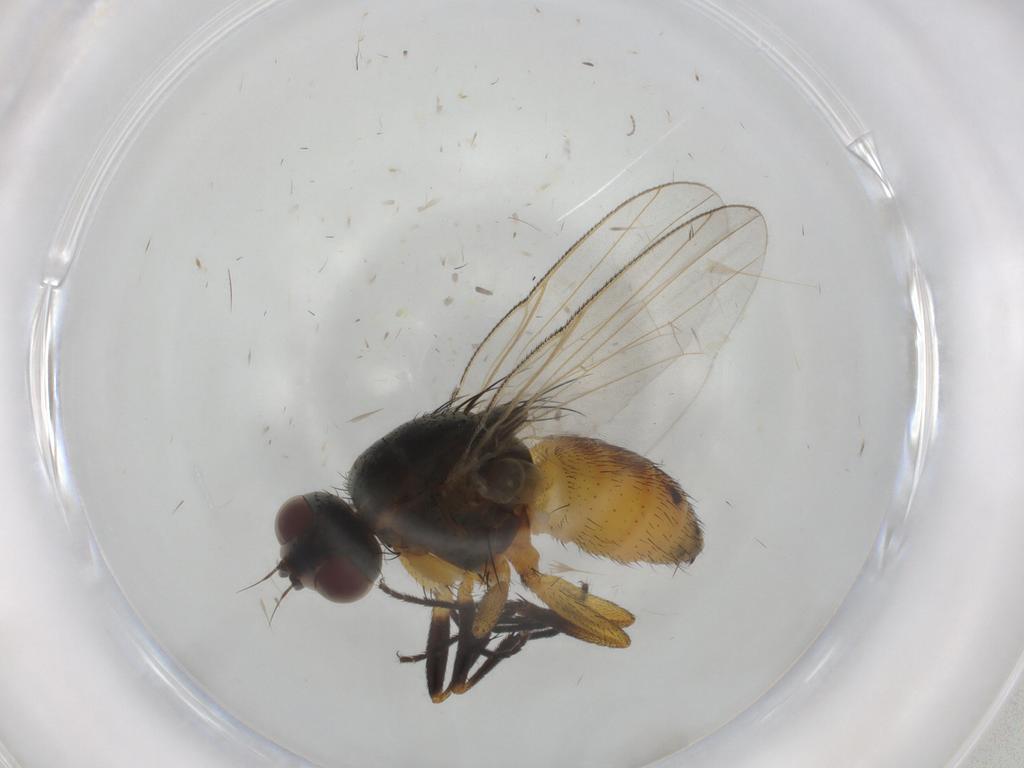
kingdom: Animalia
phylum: Arthropoda
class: Insecta
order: Diptera
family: Muscidae
